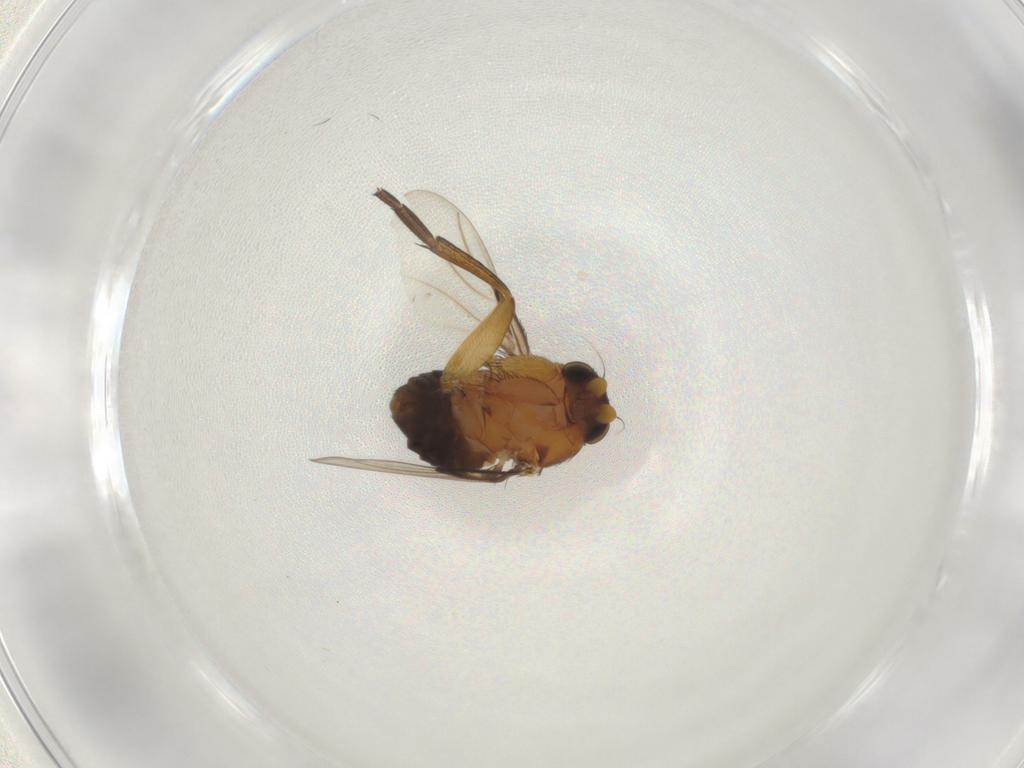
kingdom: Animalia
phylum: Arthropoda
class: Insecta
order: Diptera
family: Phoridae
